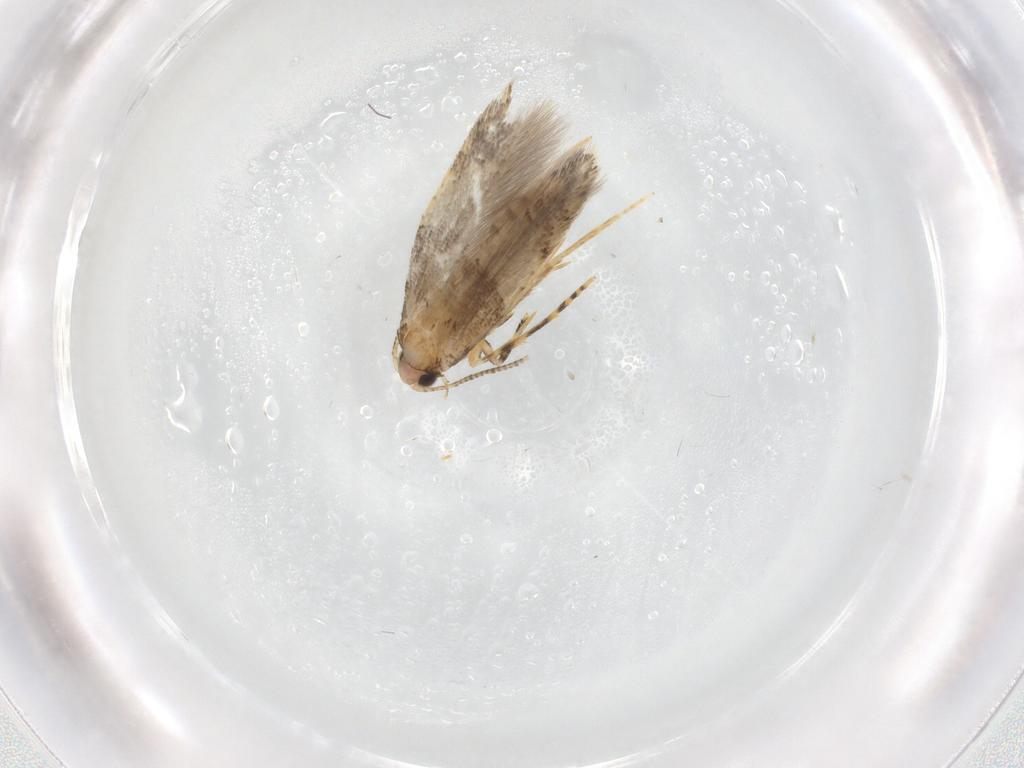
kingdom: Animalia
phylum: Arthropoda
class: Insecta
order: Lepidoptera
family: Tineidae
